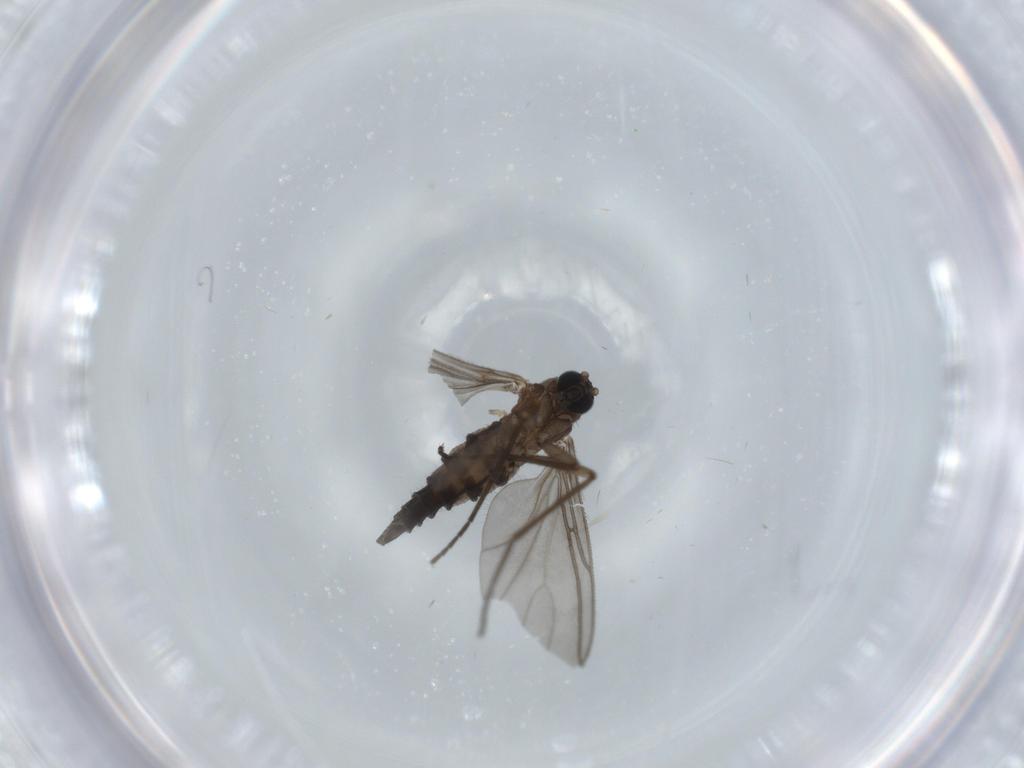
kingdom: Animalia
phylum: Arthropoda
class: Insecta
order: Diptera
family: Sciaridae
